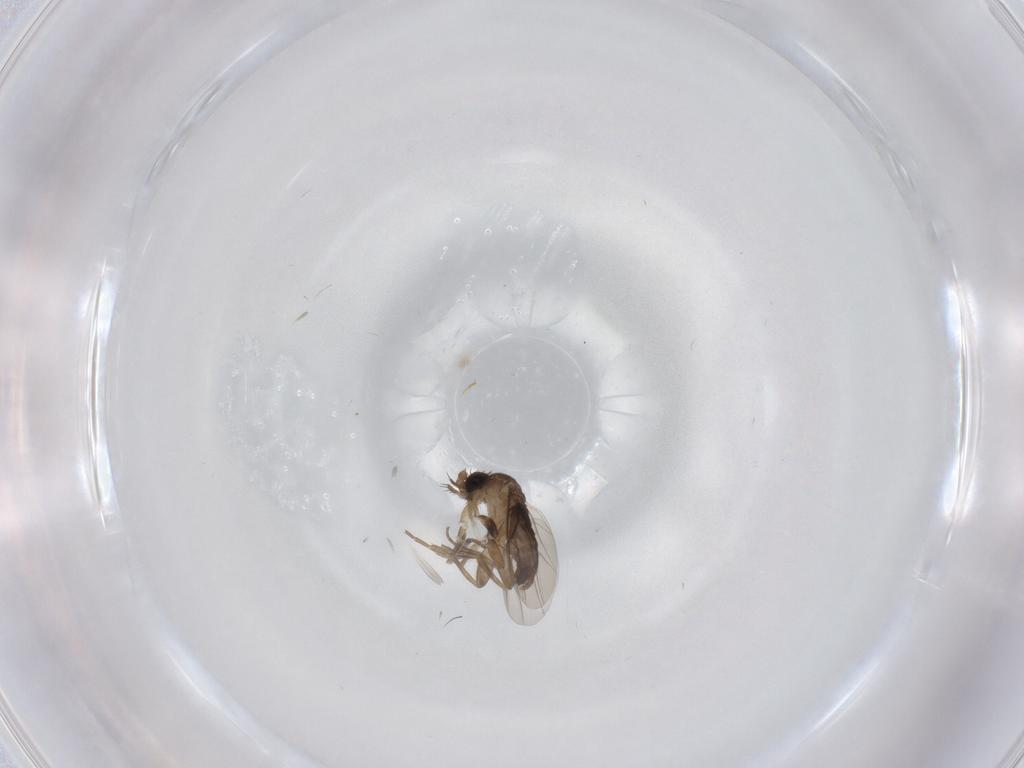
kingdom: Animalia
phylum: Arthropoda
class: Insecta
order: Diptera
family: Phoridae
